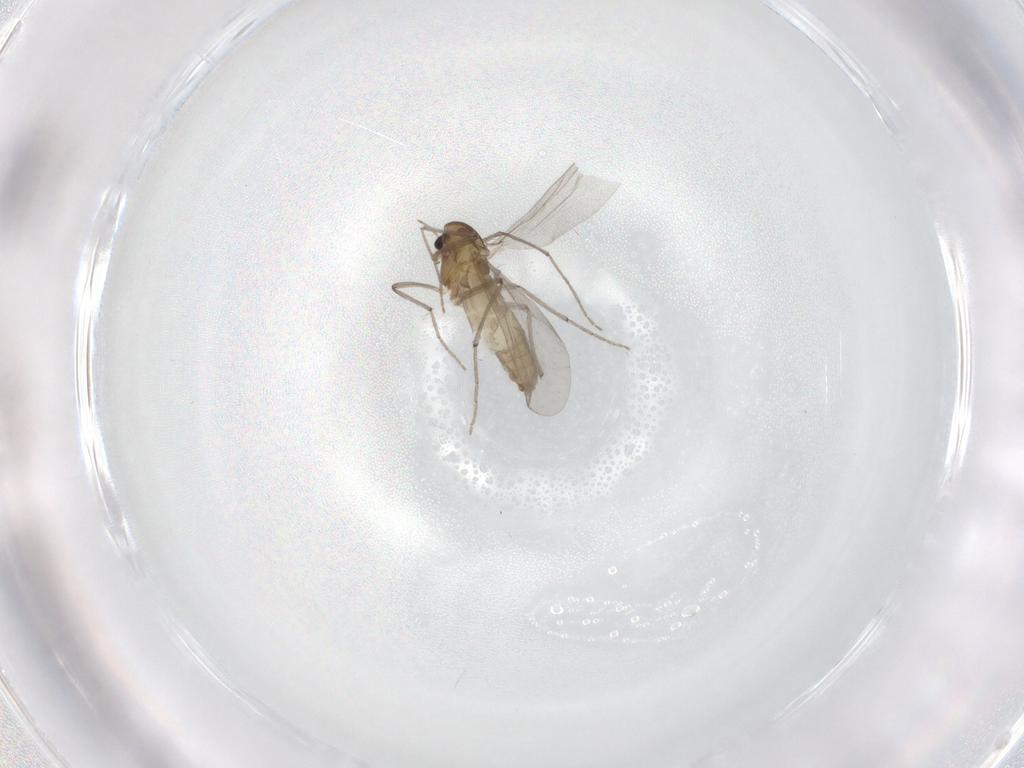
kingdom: Animalia
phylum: Arthropoda
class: Insecta
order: Diptera
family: Chironomidae
